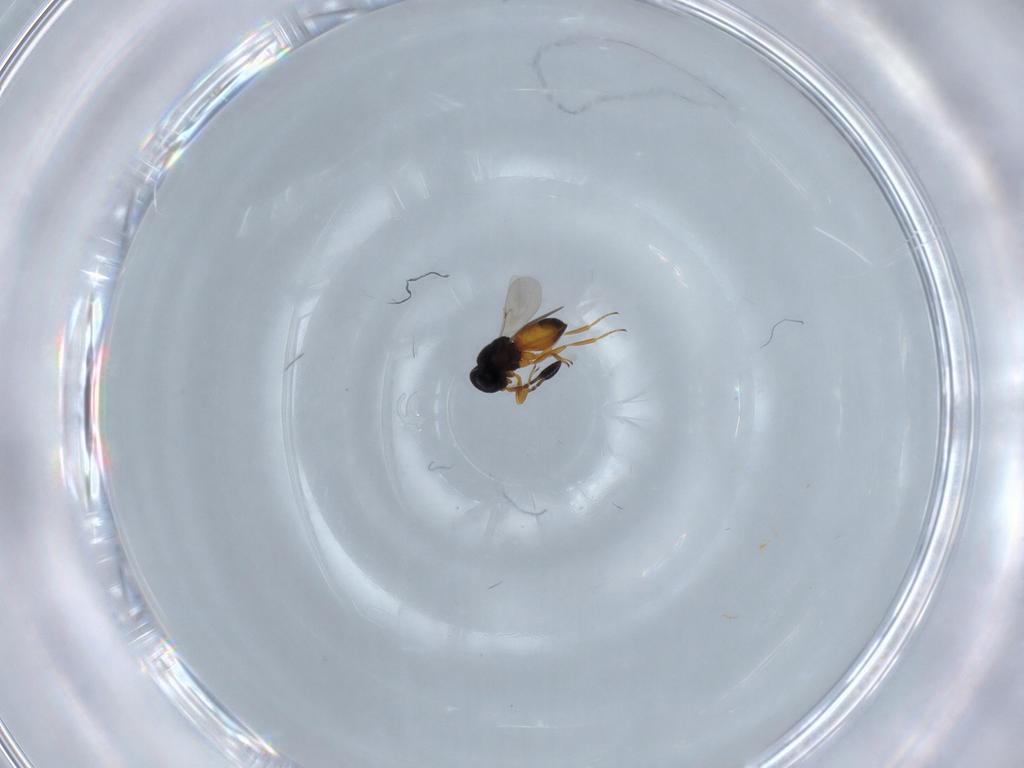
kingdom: Animalia
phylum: Arthropoda
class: Insecta
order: Hymenoptera
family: Scelionidae
